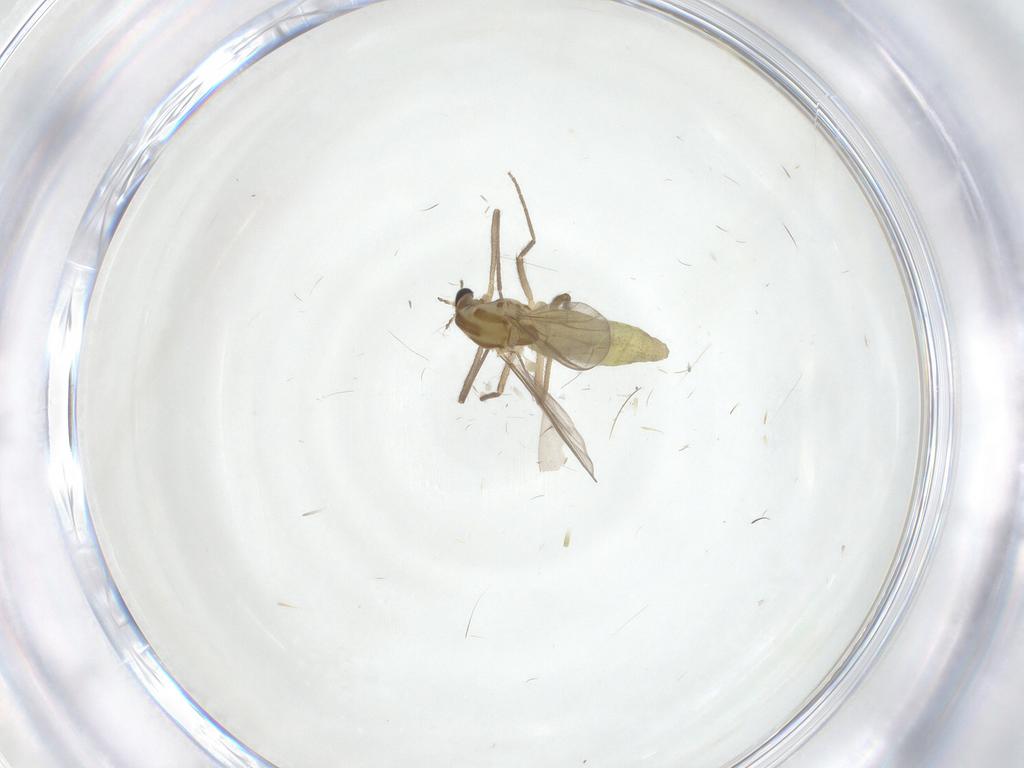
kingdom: Animalia
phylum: Arthropoda
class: Insecta
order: Diptera
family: Chironomidae
